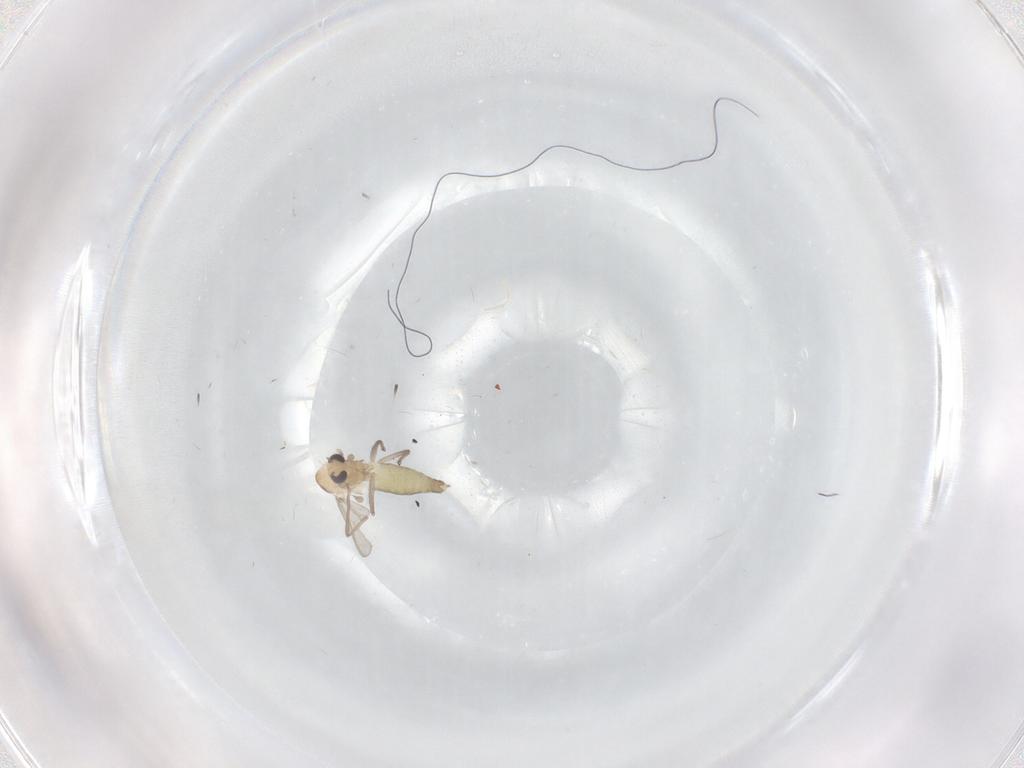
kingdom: Animalia
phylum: Arthropoda
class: Insecta
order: Diptera
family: Chironomidae
